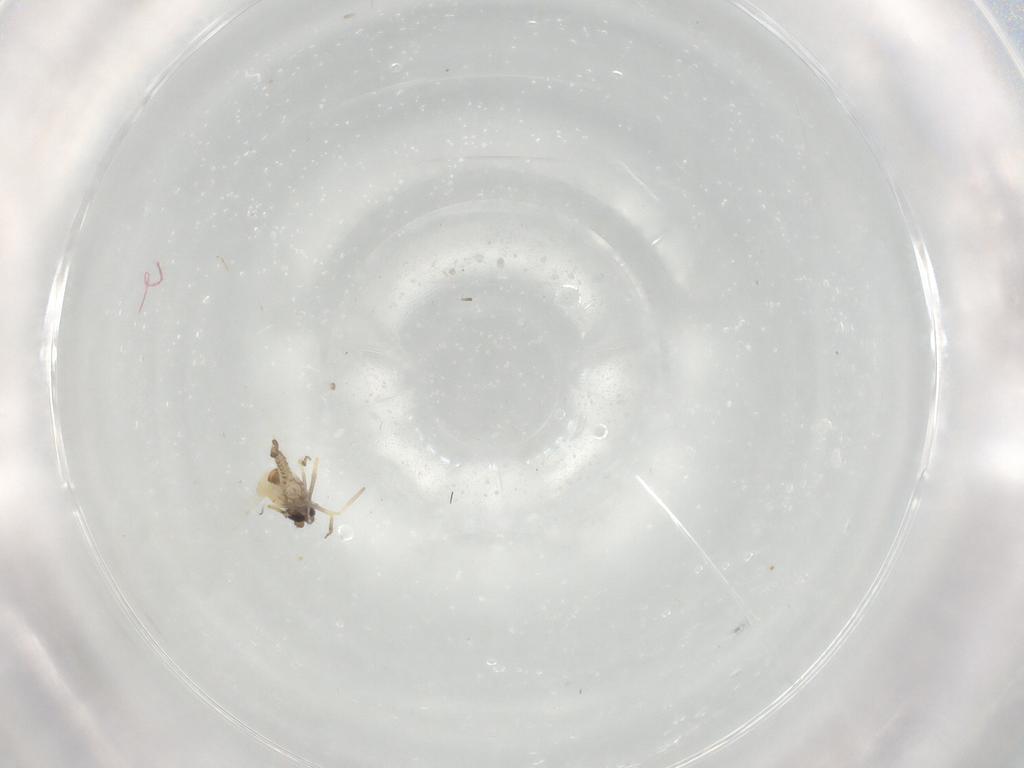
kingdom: Animalia
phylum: Arthropoda
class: Insecta
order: Diptera
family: Ceratopogonidae
